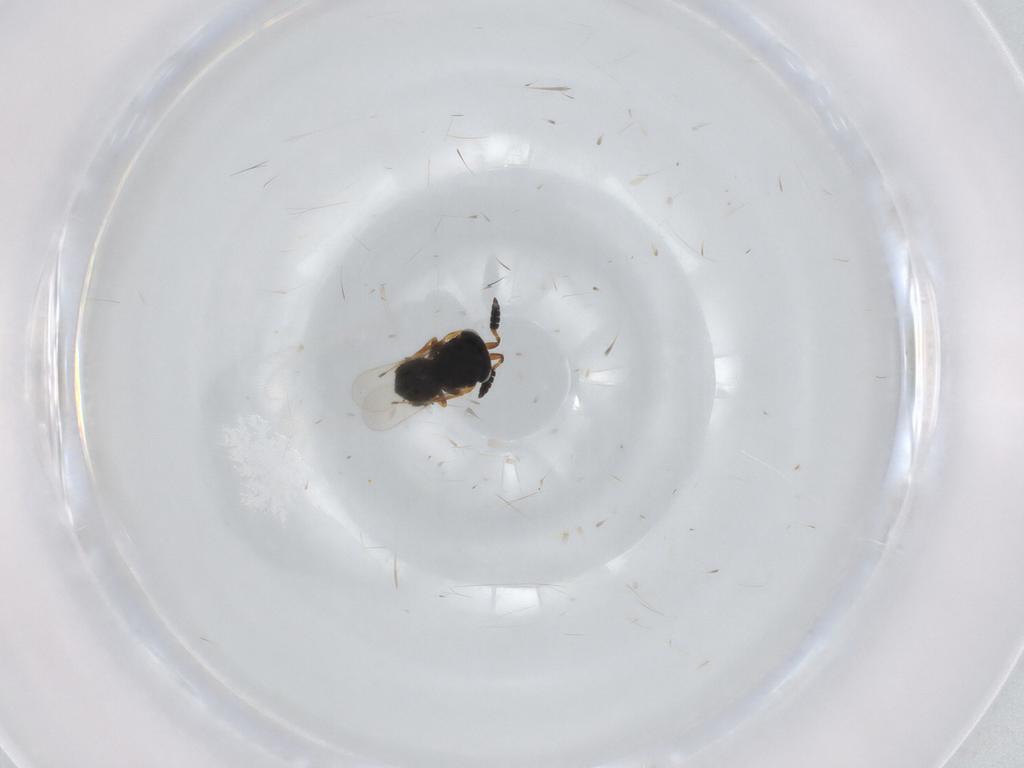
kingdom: Animalia
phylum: Arthropoda
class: Insecta
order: Hymenoptera
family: Scelionidae
